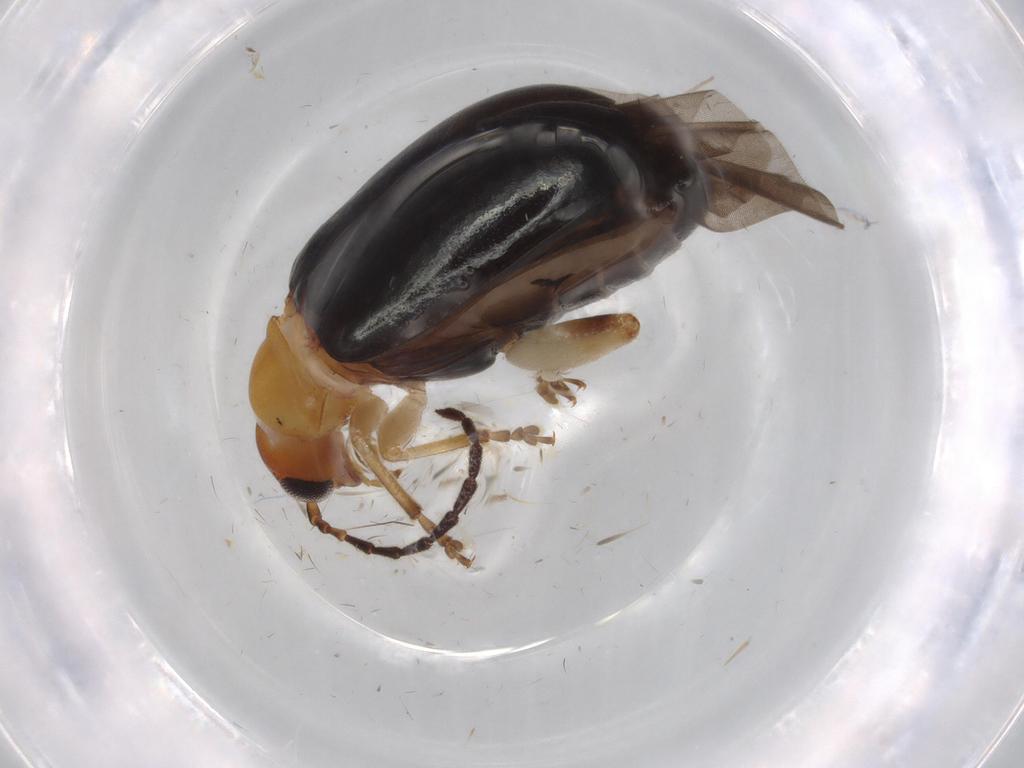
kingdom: Animalia
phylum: Arthropoda
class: Insecta
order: Coleoptera
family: Chrysomelidae
